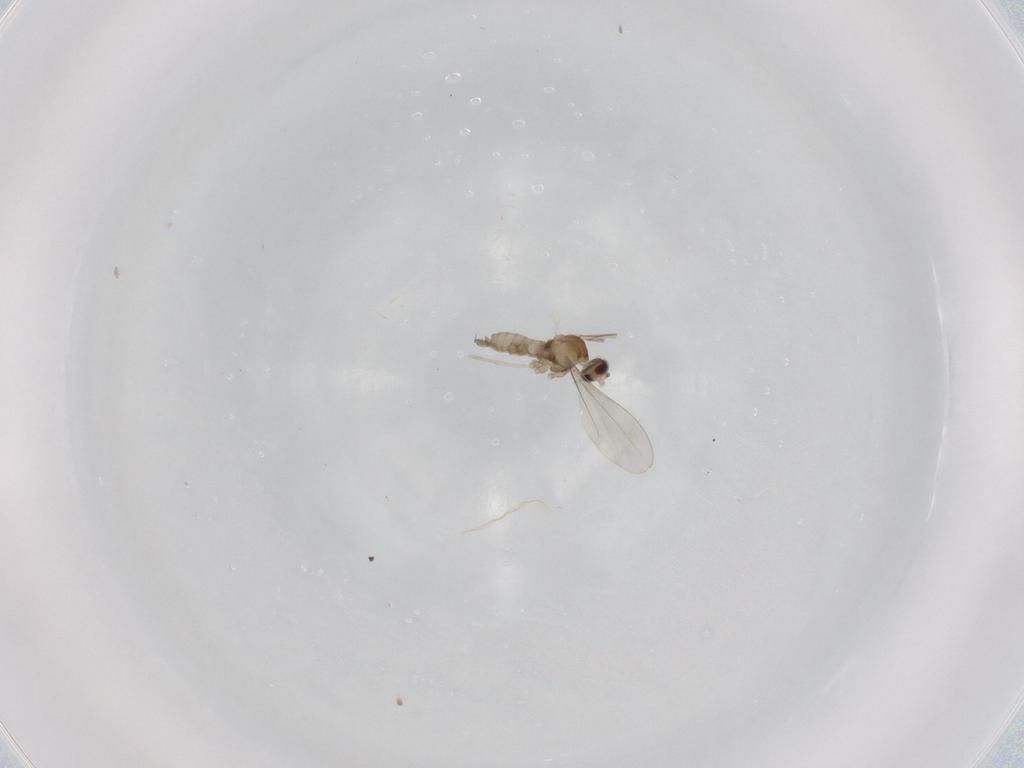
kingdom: Animalia
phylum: Arthropoda
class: Insecta
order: Diptera
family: Cecidomyiidae
